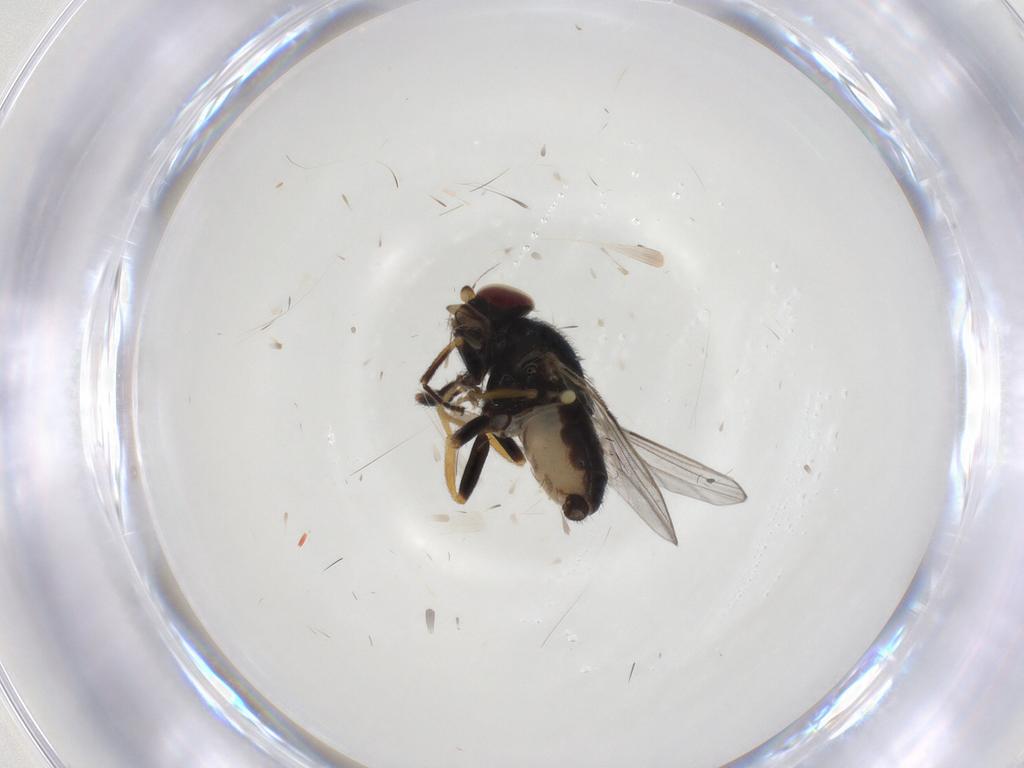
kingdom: Animalia
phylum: Arthropoda
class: Insecta
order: Diptera
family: Chloropidae
